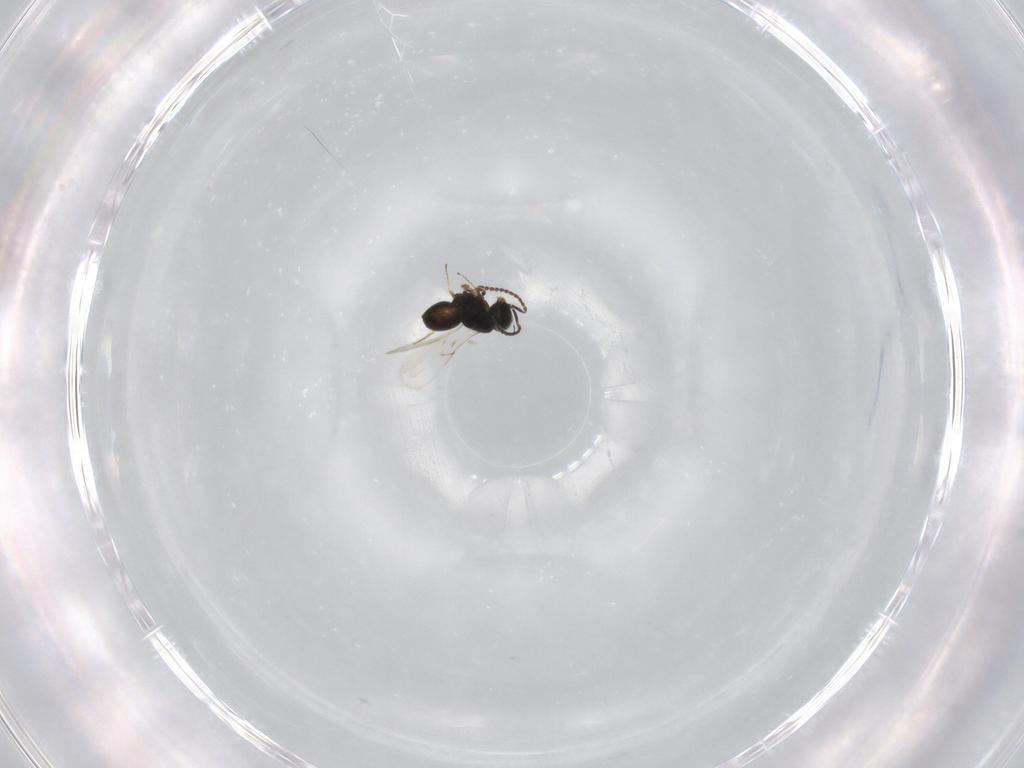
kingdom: Animalia
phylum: Arthropoda
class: Insecta
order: Hymenoptera
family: Scelionidae
